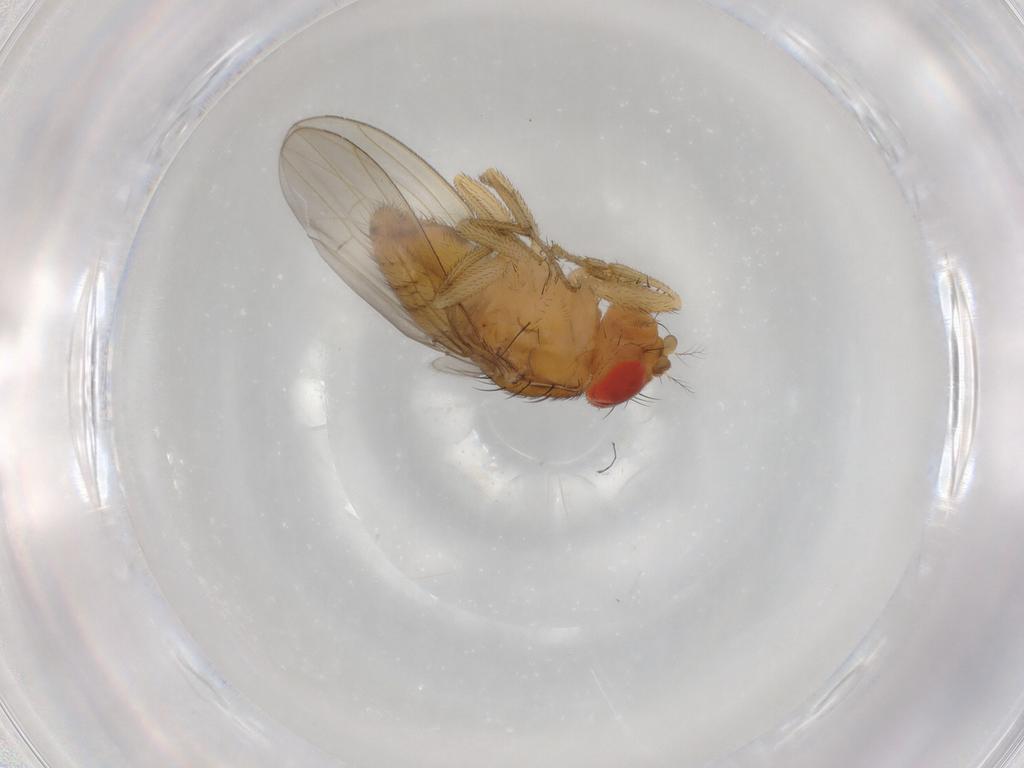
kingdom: Animalia
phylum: Arthropoda
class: Insecta
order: Diptera
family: Drosophilidae
